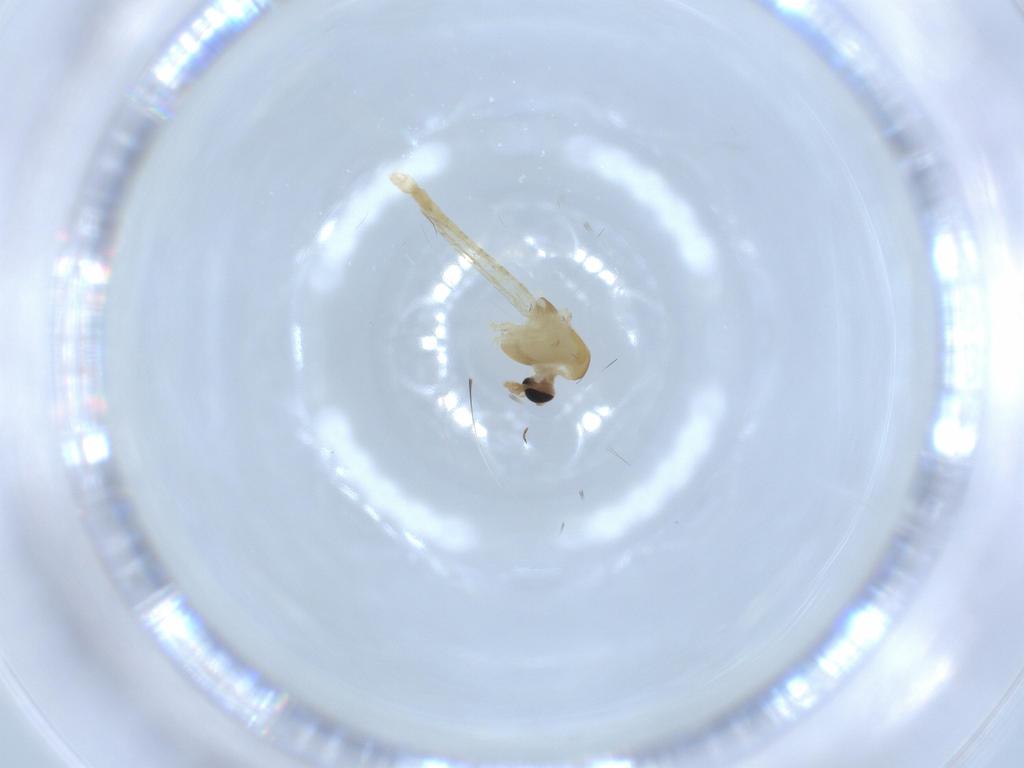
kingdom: Animalia
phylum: Arthropoda
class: Insecta
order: Diptera
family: Chironomidae
